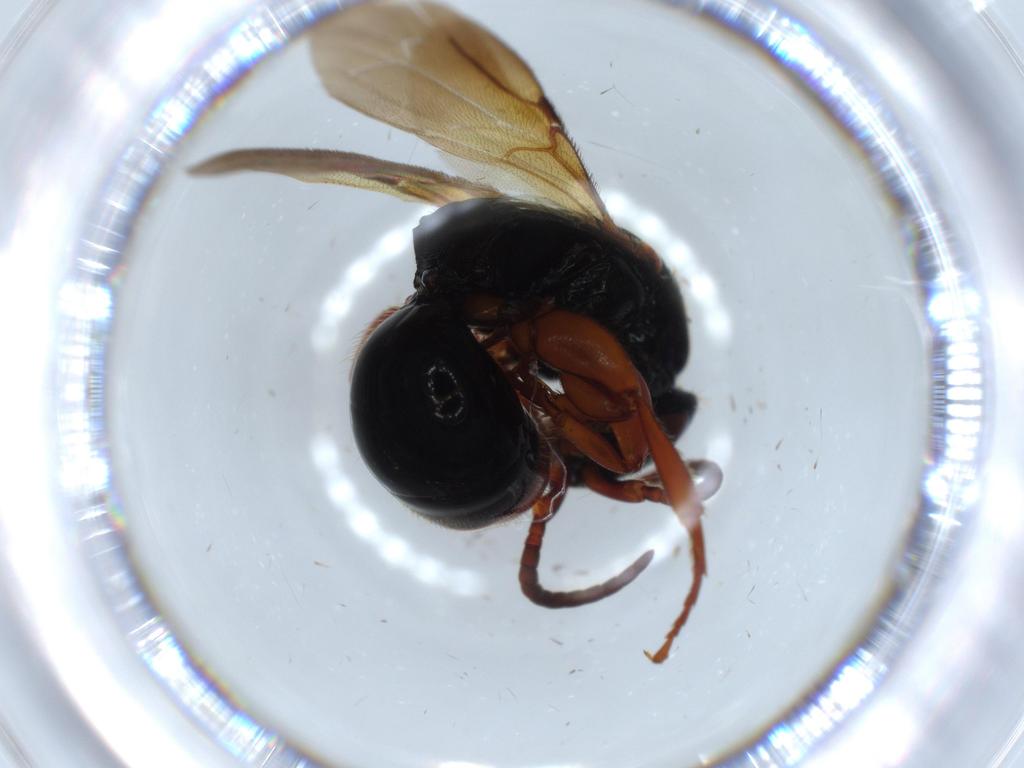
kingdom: Animalia
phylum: Arthropoda
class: Insecta
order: Hymenoptera
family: Bethylidae
